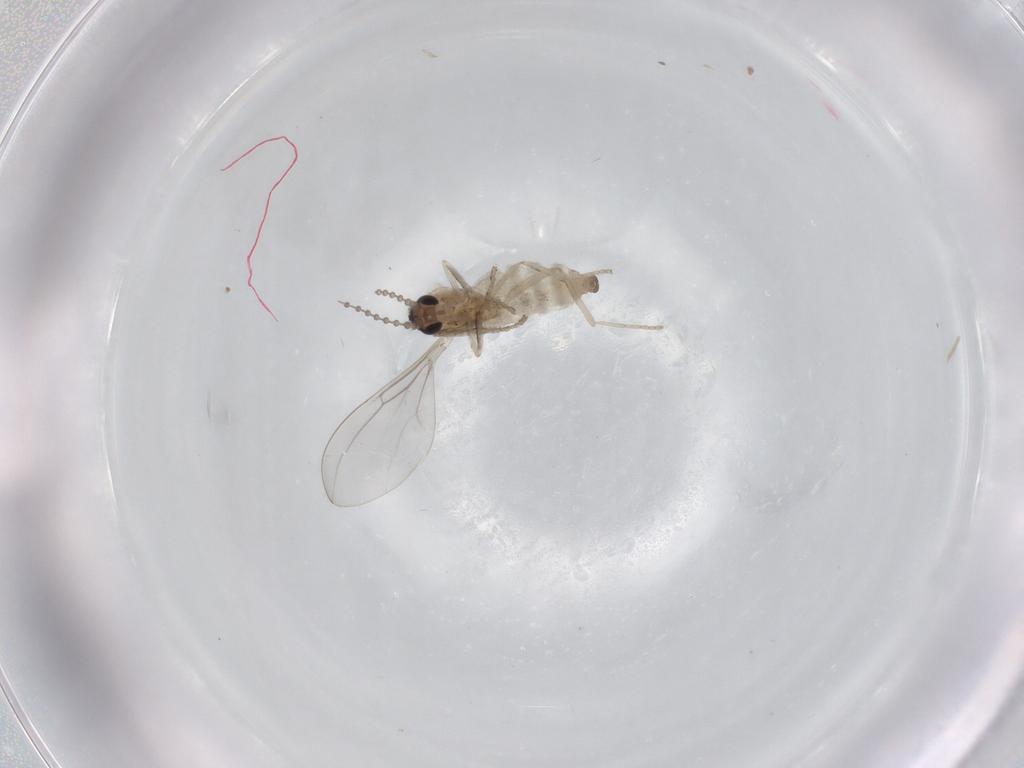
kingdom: Animalia
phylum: Arthropoda
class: Insecta
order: Diptera
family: Cecidomyiidae
